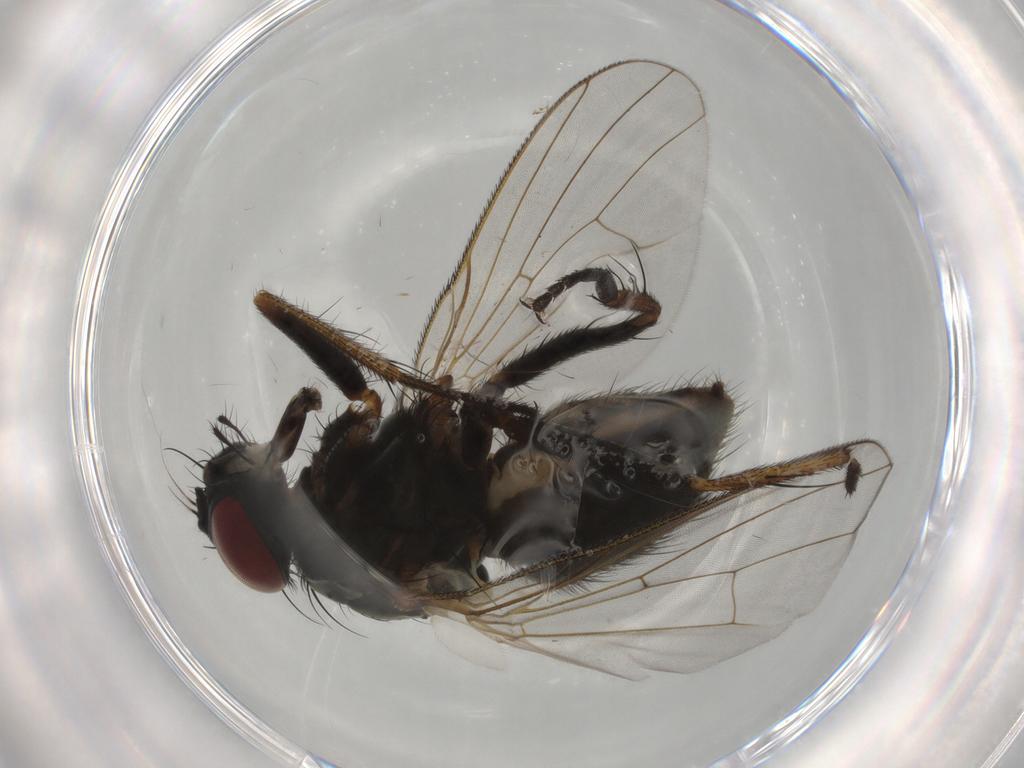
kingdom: Animalia
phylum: Arthropoda
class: Insecta
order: Diptera
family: Ceratopogonidae
